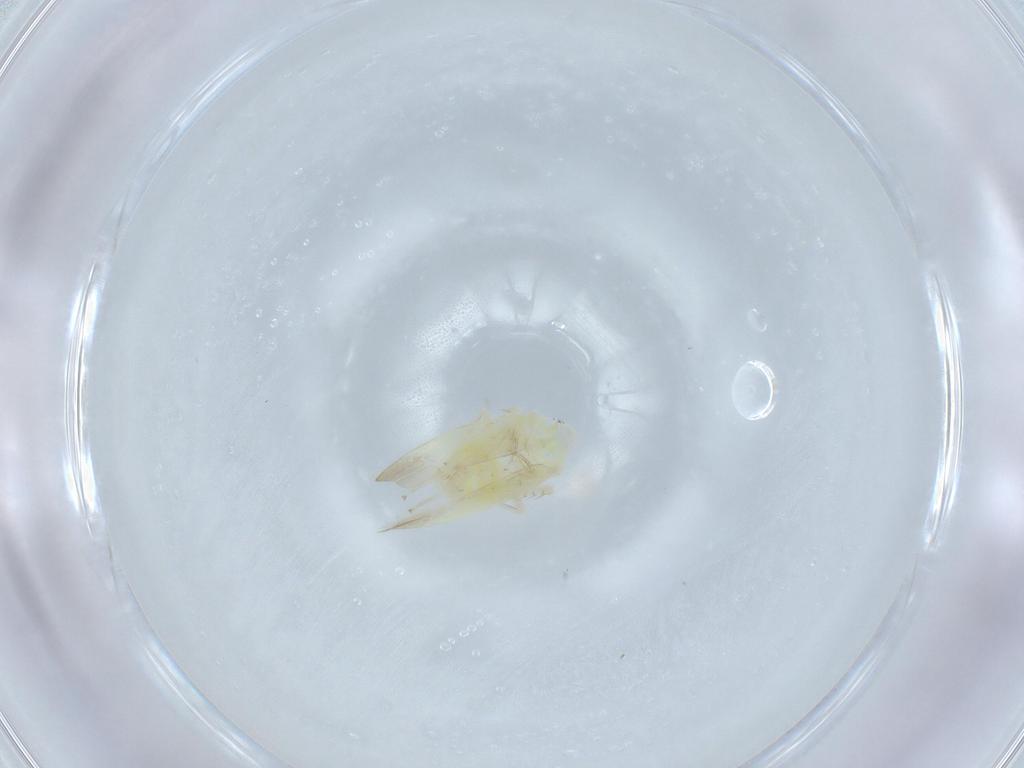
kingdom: Animalia
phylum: Arthropoda
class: Insecta
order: Hemiptera
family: Cicadellidae
